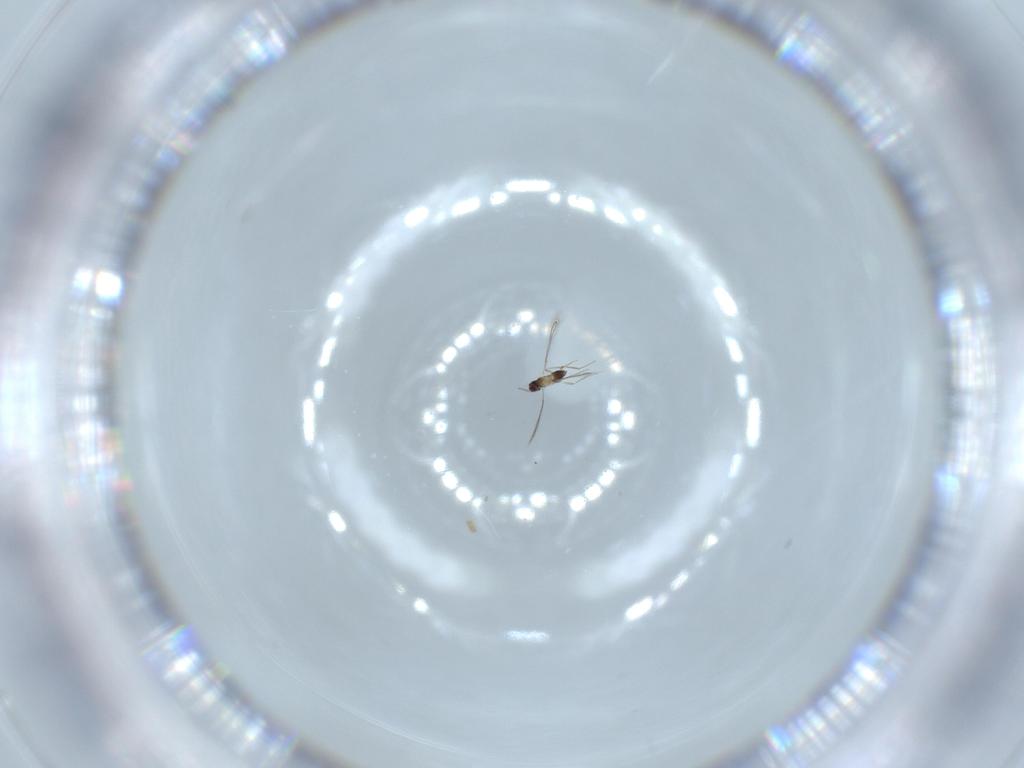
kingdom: Animalia
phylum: Arthropoda
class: Insecta
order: Hymenoptera
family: Mymaridae
